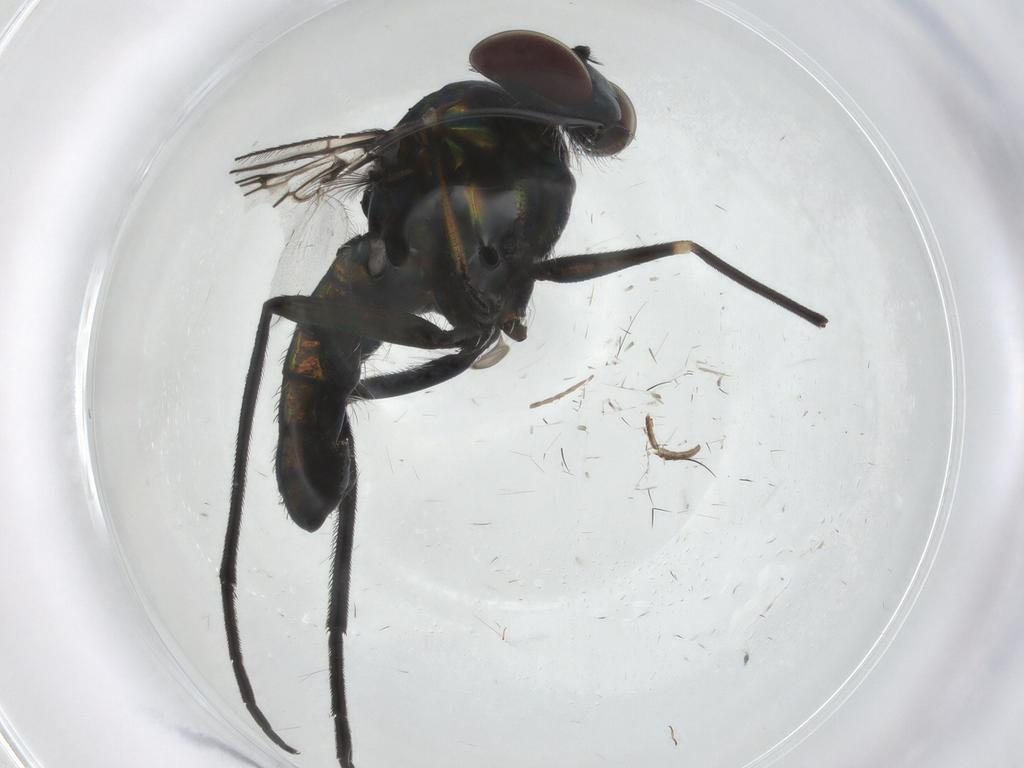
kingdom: Animalia
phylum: Arthropoda
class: Insecta
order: Diptera
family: Dolichopodidae
